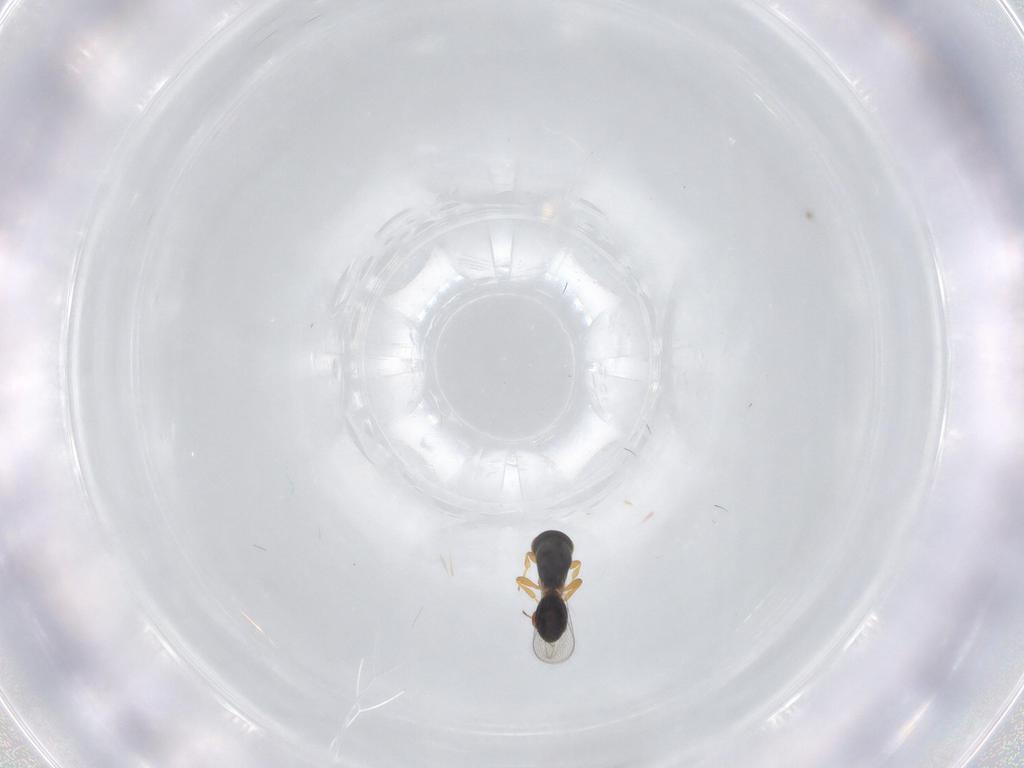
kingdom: Animalia
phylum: Arthropoda
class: Insecta
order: Hymenoptera
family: Platygastridae
